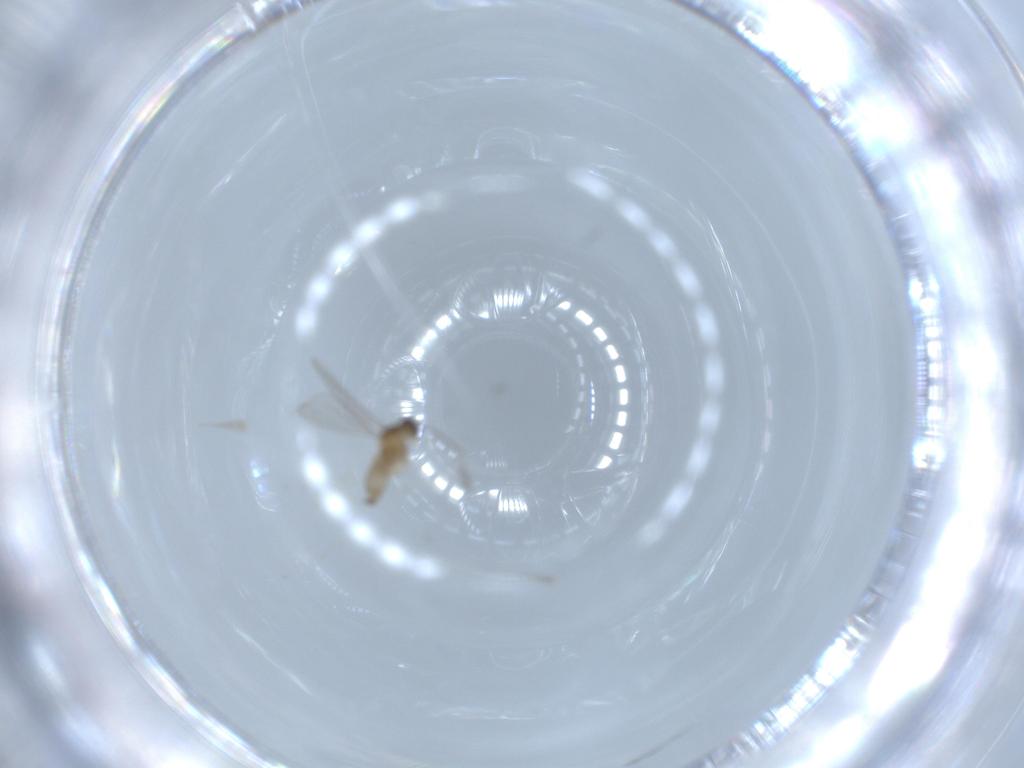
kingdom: Animalia
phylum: Arthropoda
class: Insecta
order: Diptera
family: Cecidomyiidae
